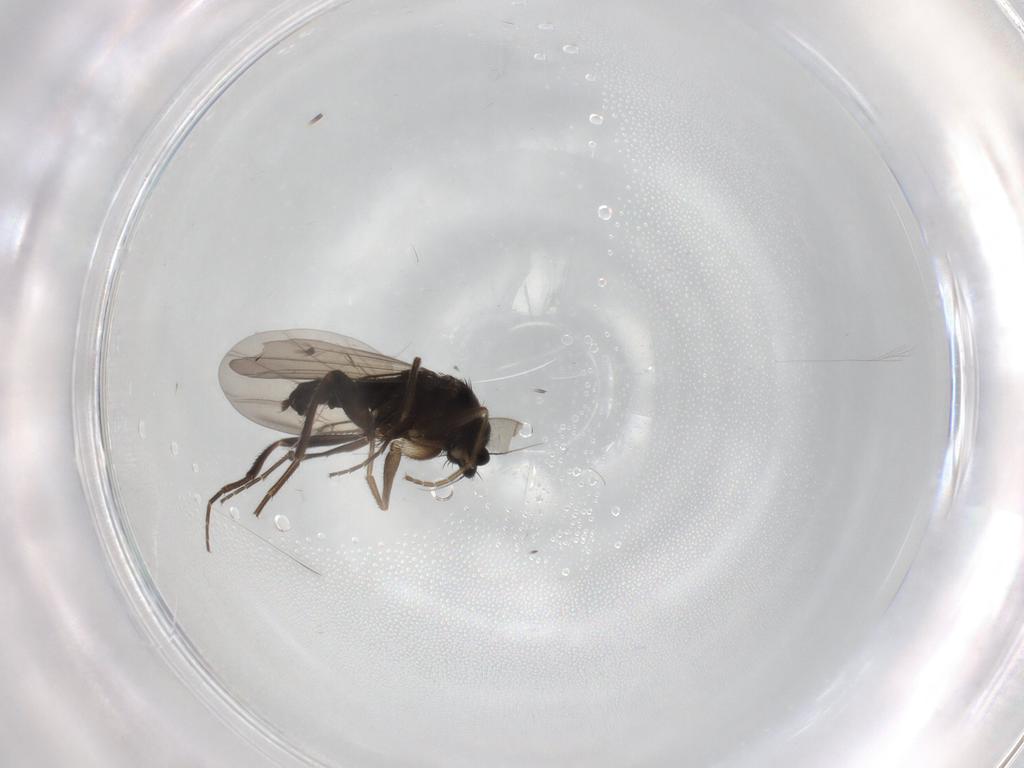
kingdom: Animalia
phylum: Arthropoda
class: Insecta
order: Diptera
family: Phoridae
